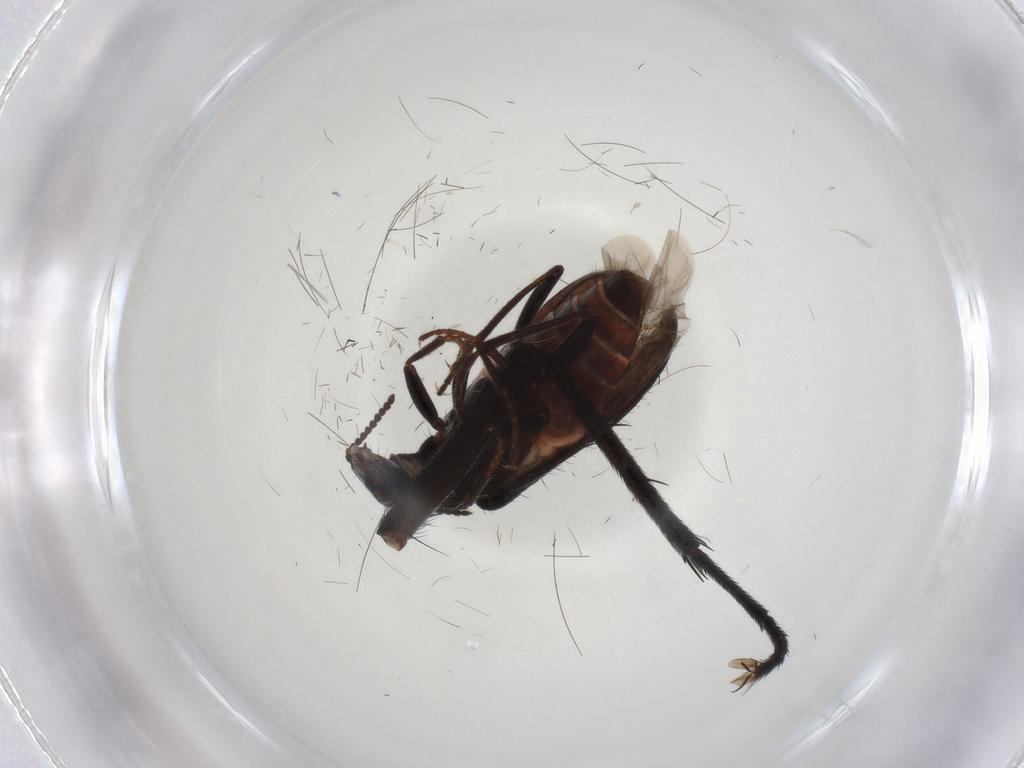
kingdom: Animalia
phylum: Arthropoda
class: Insecta
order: Coleoptera
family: Melyridae
